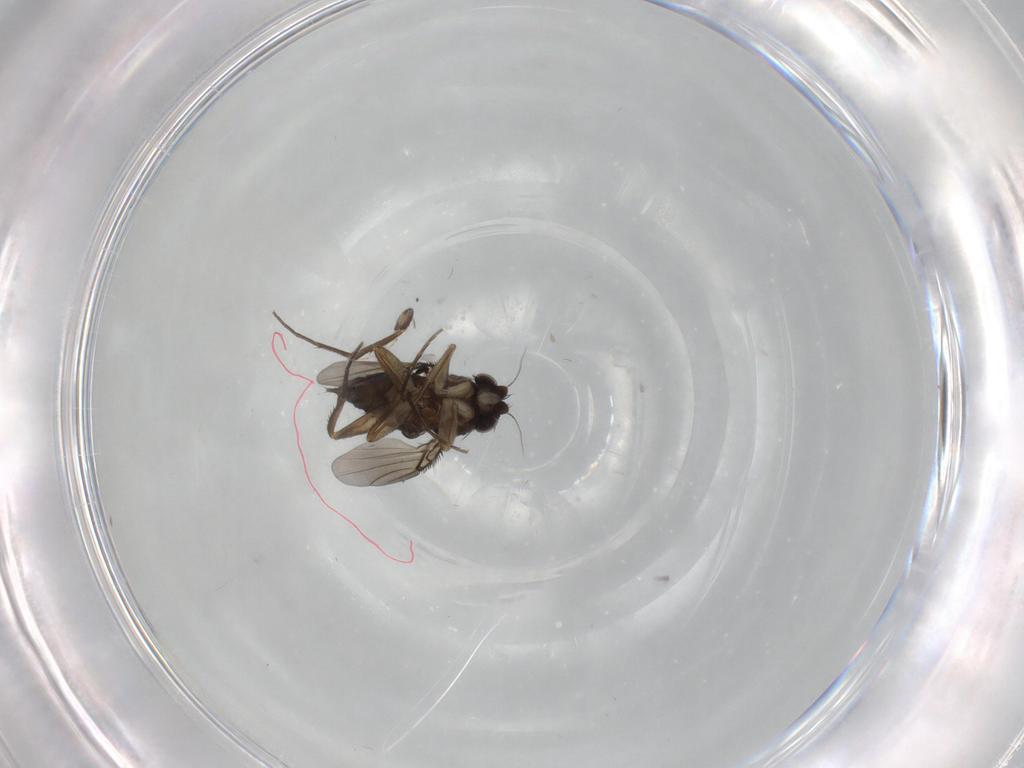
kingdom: Animalia
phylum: Arthropoda
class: Insecta
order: Diptera
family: Phoridae
